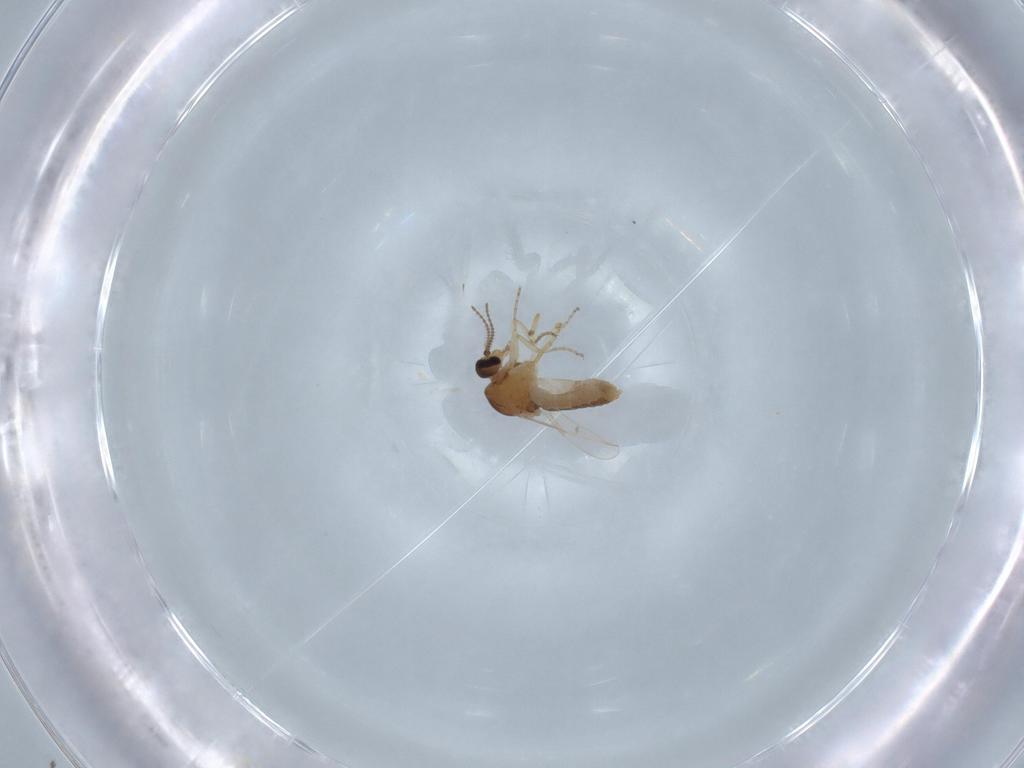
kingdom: Animalia
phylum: Arthropoda
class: Insecta
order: Diptera
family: Ceratopogonidae
